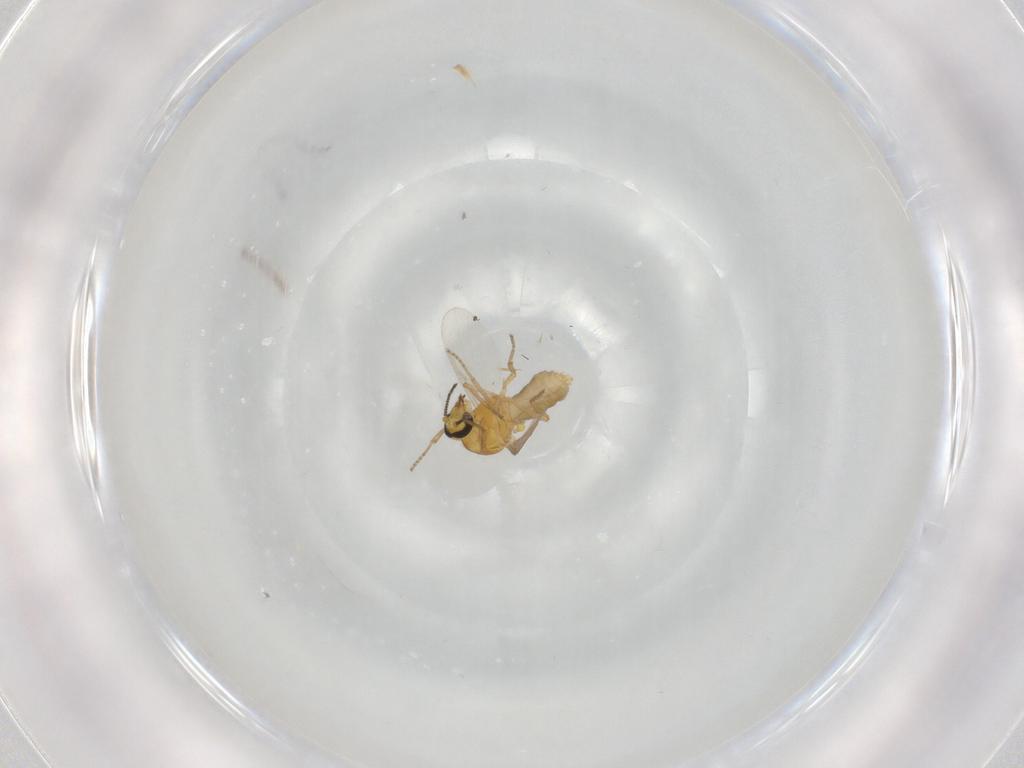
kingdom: Animalia
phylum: Arthropoda
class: Insecta
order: Diptera
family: Ceratopogonidae
